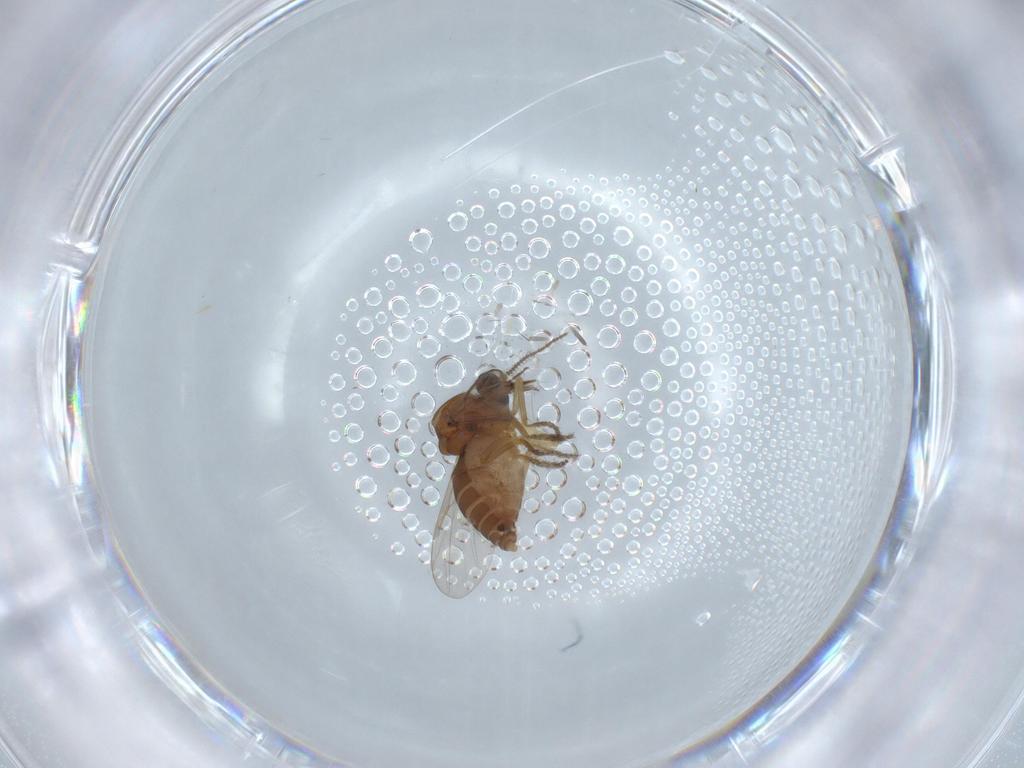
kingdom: Animalia
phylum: Arthropoda
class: Insecta
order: Diptera
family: Ceratopogonidae
